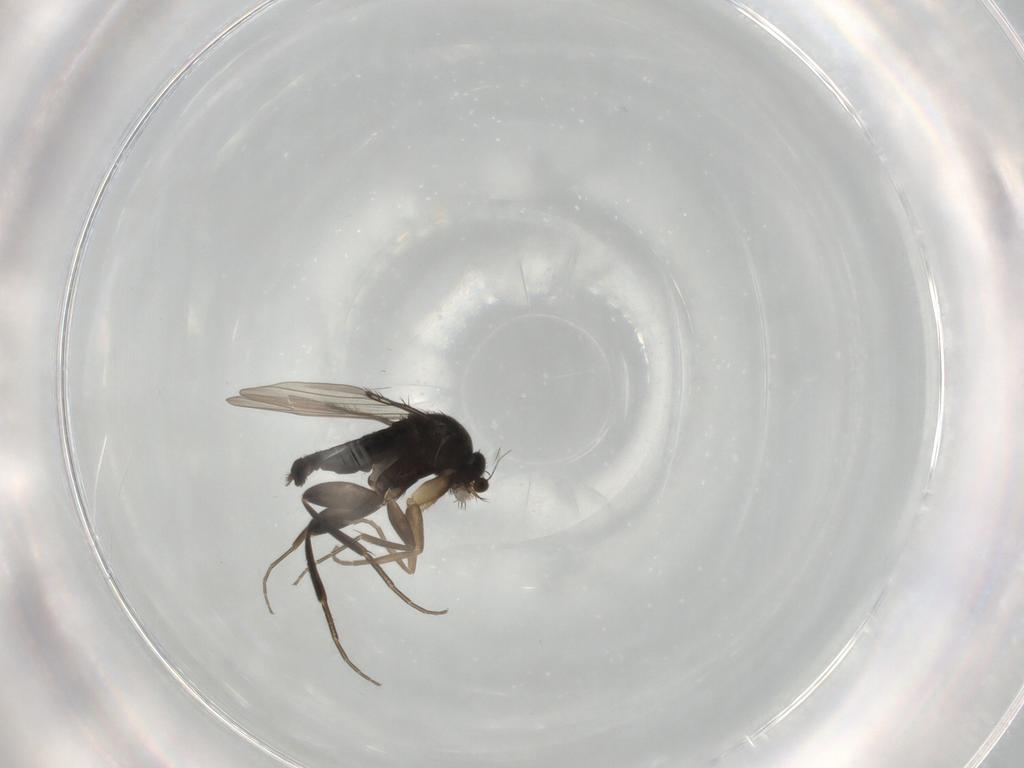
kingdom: Animalia
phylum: Arthropoda
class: Insecta
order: Diptera
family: Phoridae
